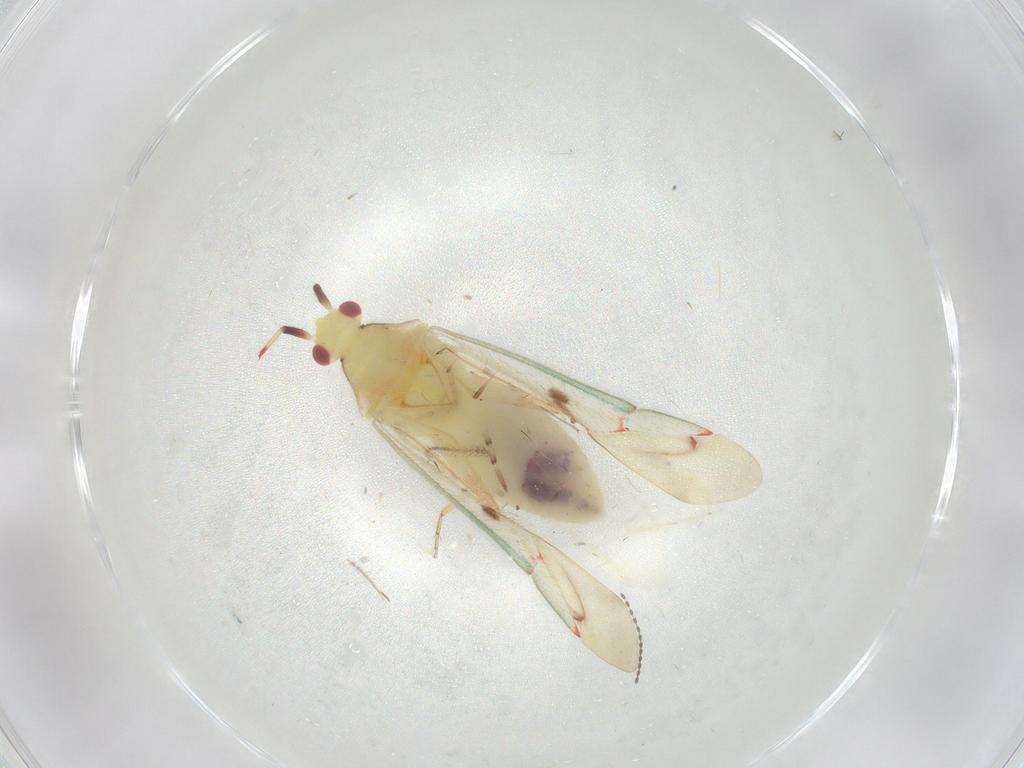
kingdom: Animalia
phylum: Arthropoda
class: Insecta
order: Hemiptera
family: Miridae
